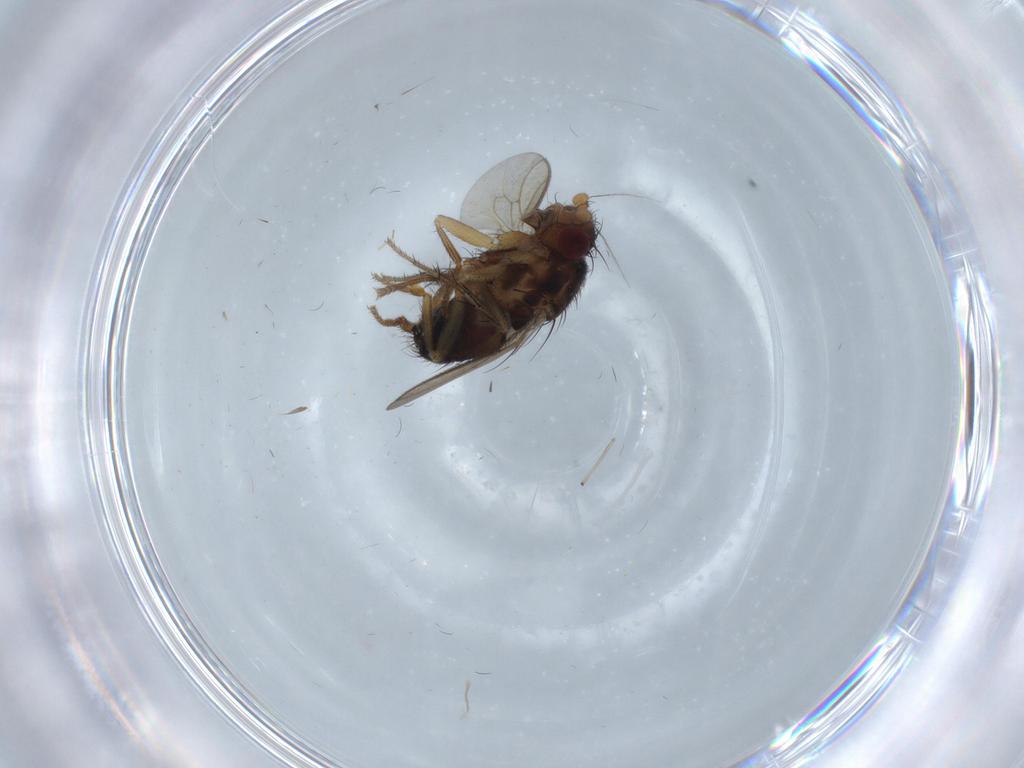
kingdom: Animalia
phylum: Arthropoda
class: Insecta
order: Diptera
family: Sphaeroceridae
